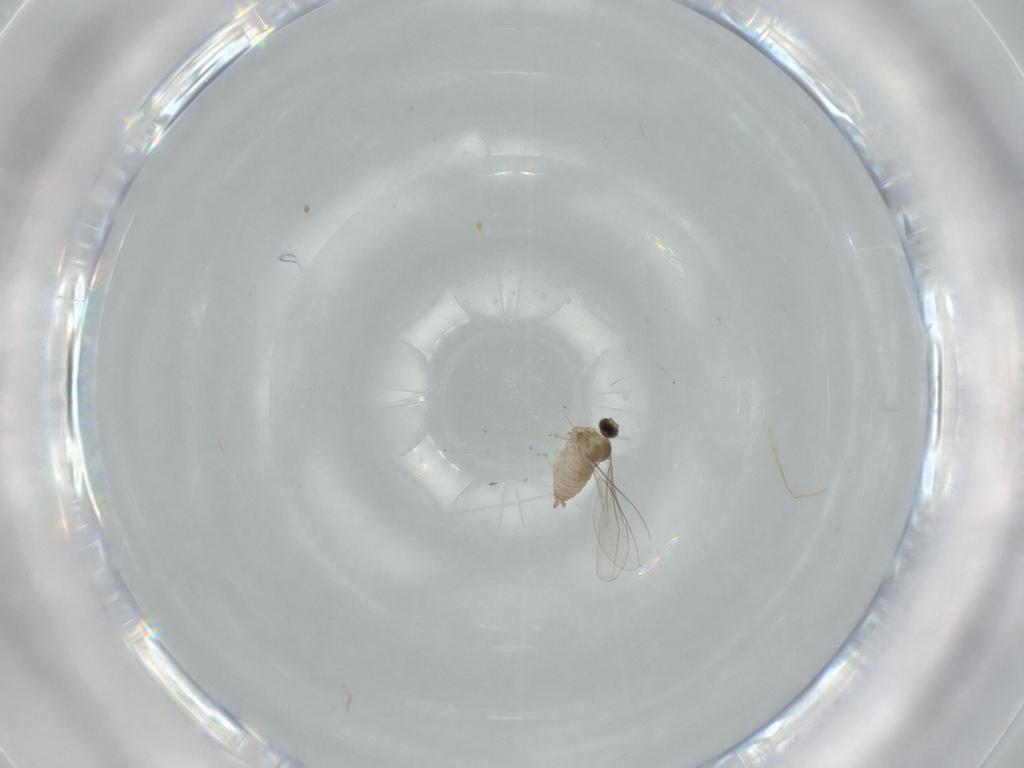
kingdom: Animalia
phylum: Arthropoda
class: Insecta
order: Diptera
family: Cecidomyiidae
